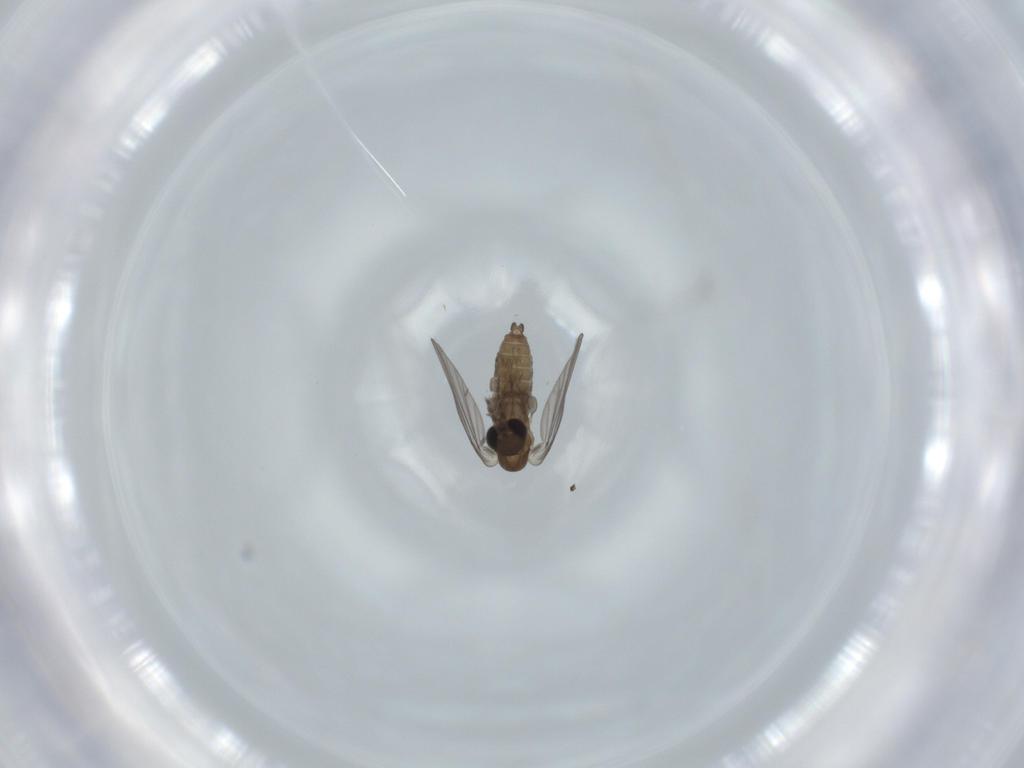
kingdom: Animalia
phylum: Arthropoda
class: Insecta
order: Diptera
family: Psychodidae
